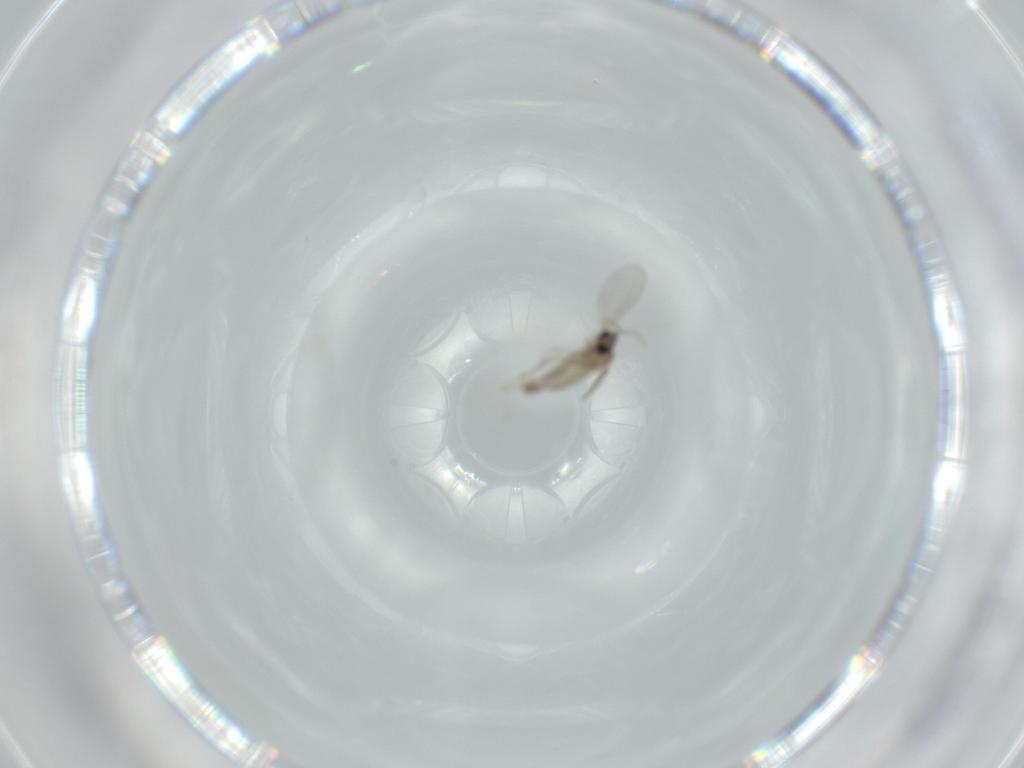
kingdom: Animalia
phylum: Arthropoda
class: Insecta
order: Diptera
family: Cecidomyiidae
